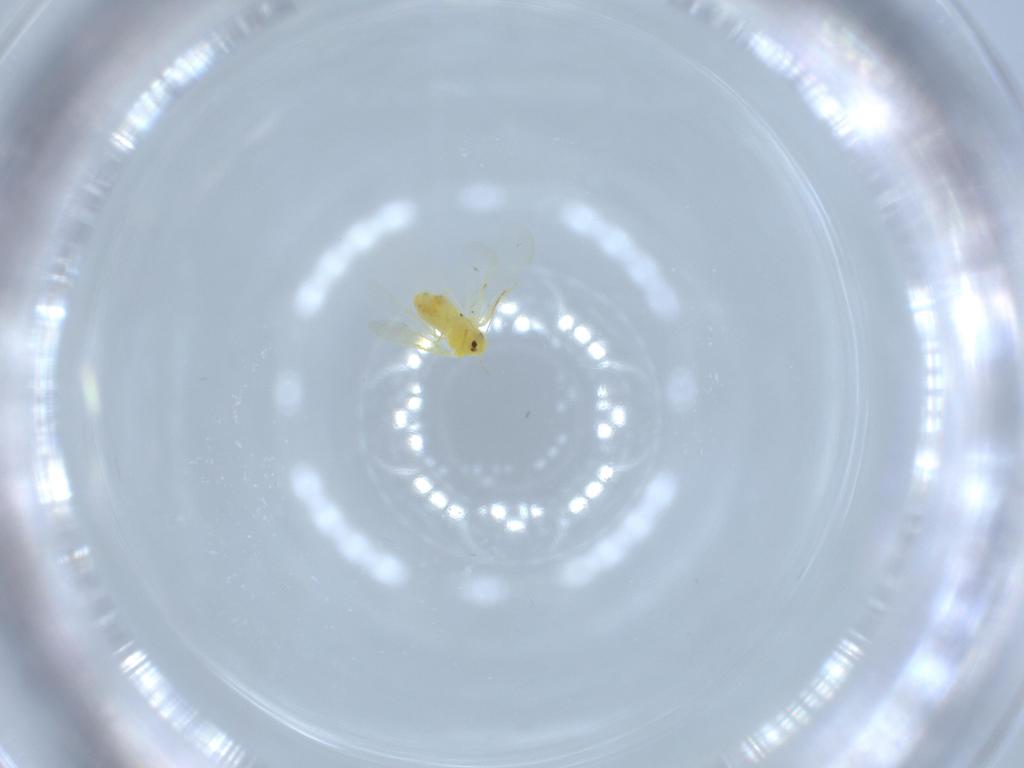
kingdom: Animalia
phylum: Arthropoda
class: Insecta
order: Hemiptera
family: Aleyrodidae
